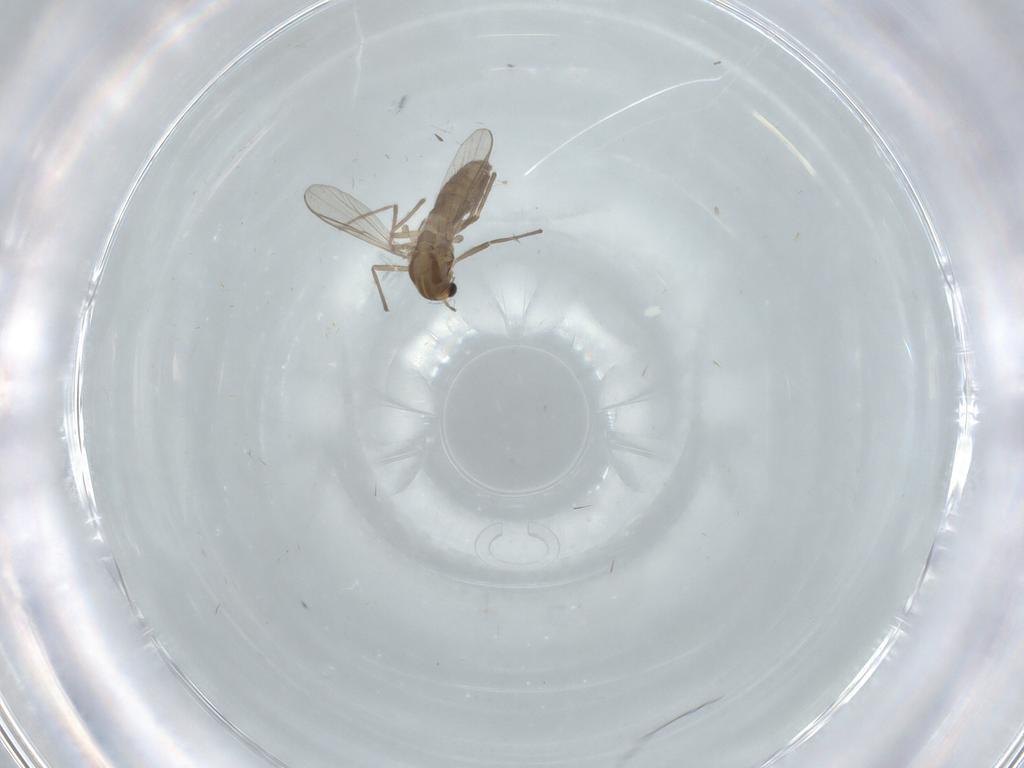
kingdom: Animalia
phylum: Arthropoda
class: Insecta
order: Diptera
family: Chironomidae
